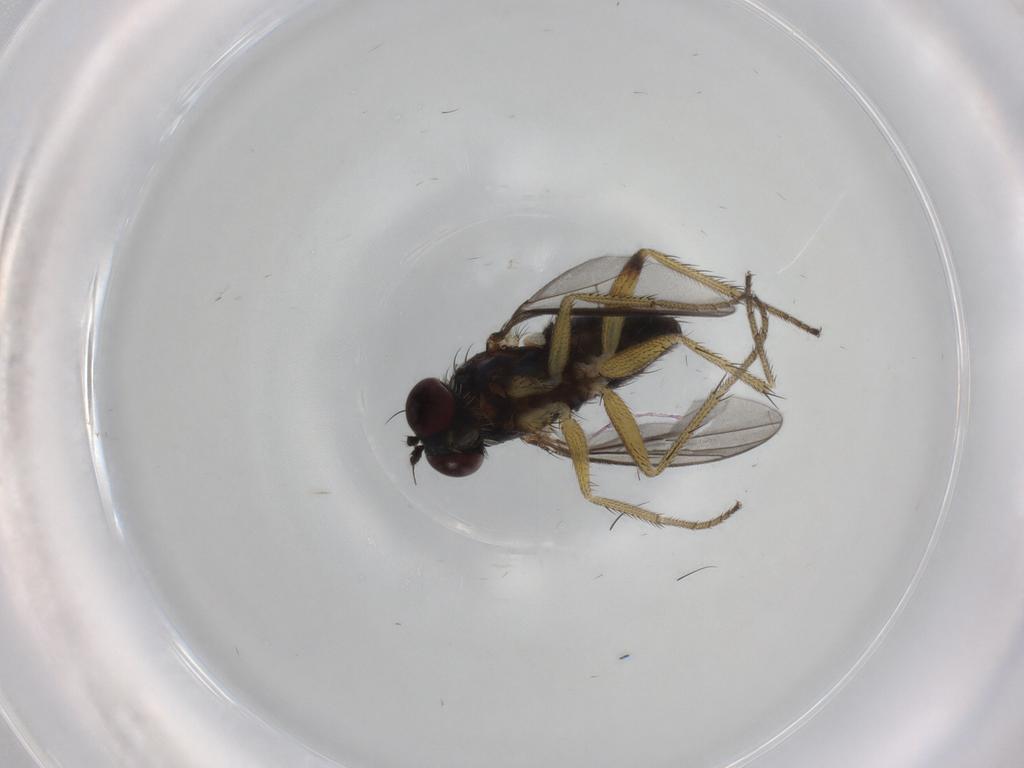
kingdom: Animalia
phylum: Arthropoda
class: Insecta
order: Diptera
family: Dolichopodidae
